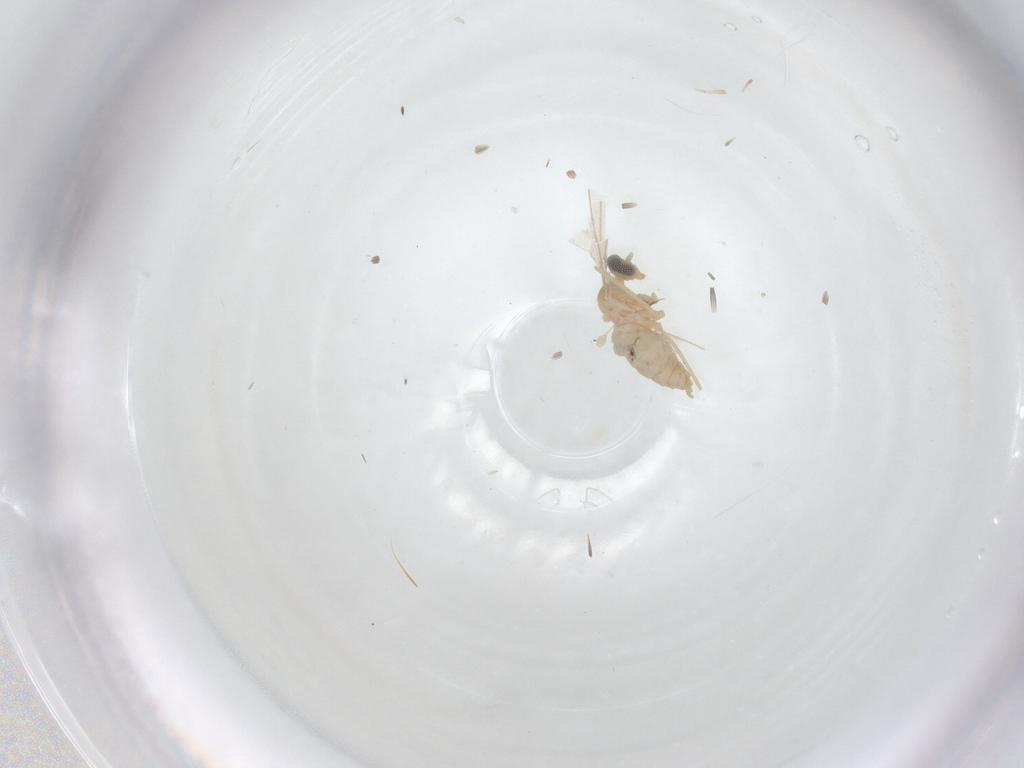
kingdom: Animalia
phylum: Arthropoda
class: Insecta
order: Diptera
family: Cecidomyiidae
